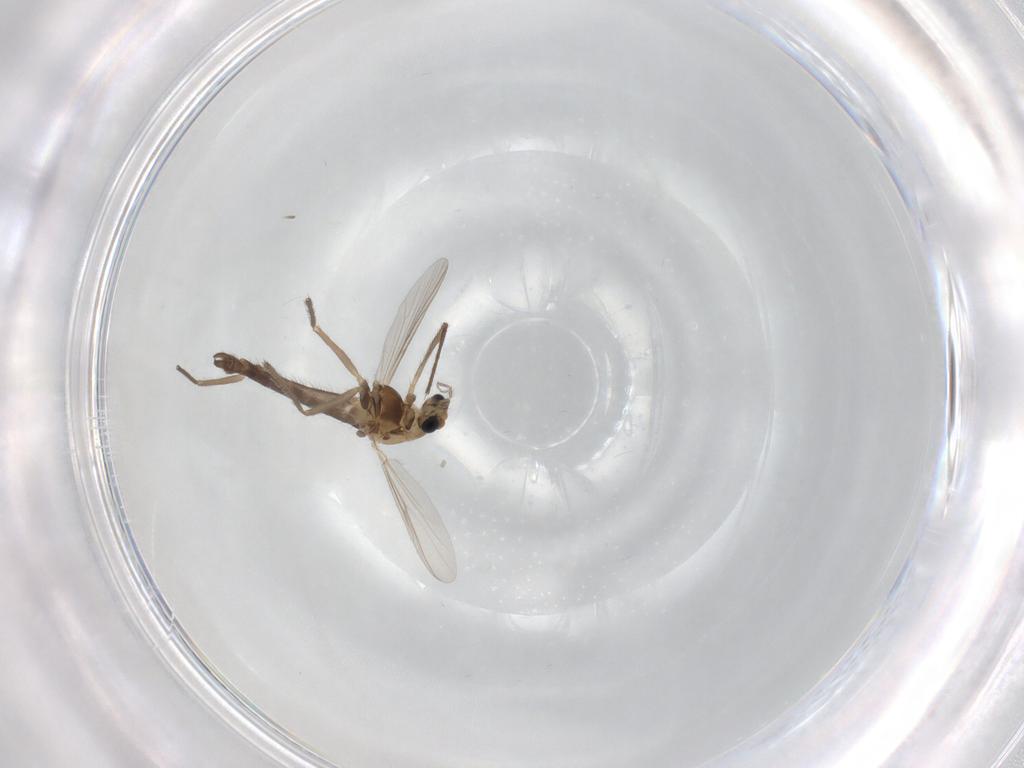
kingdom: Animalia
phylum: Arthropoda
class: Insecta
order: Diptera
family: Chironomidae
